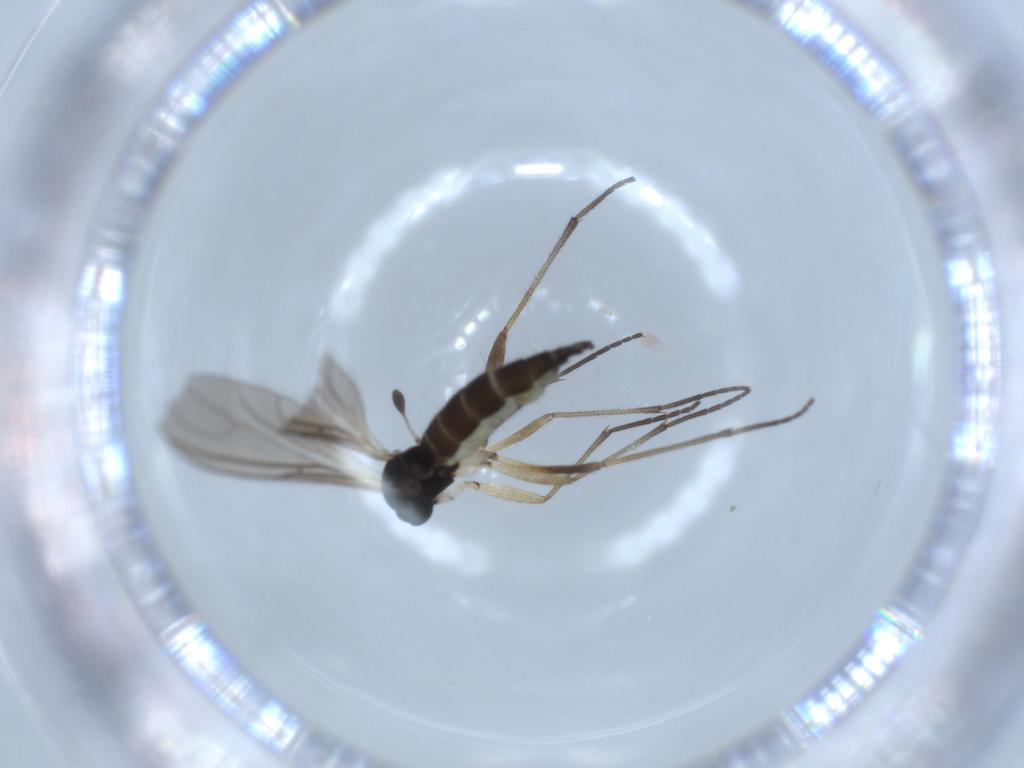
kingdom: Animalia
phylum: Arthropoda
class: Insecta
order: Diptera
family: Sciaridae
